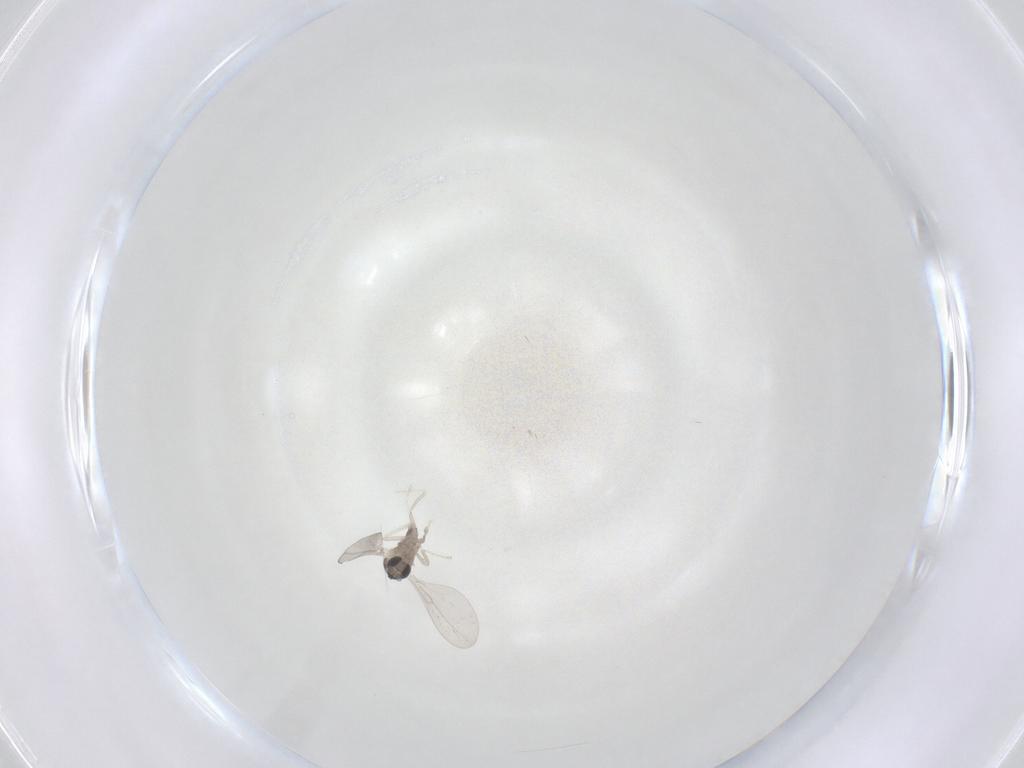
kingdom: Animalia
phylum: Arthropoda
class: Insecta
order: Diptera
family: Cecidomyiidae
